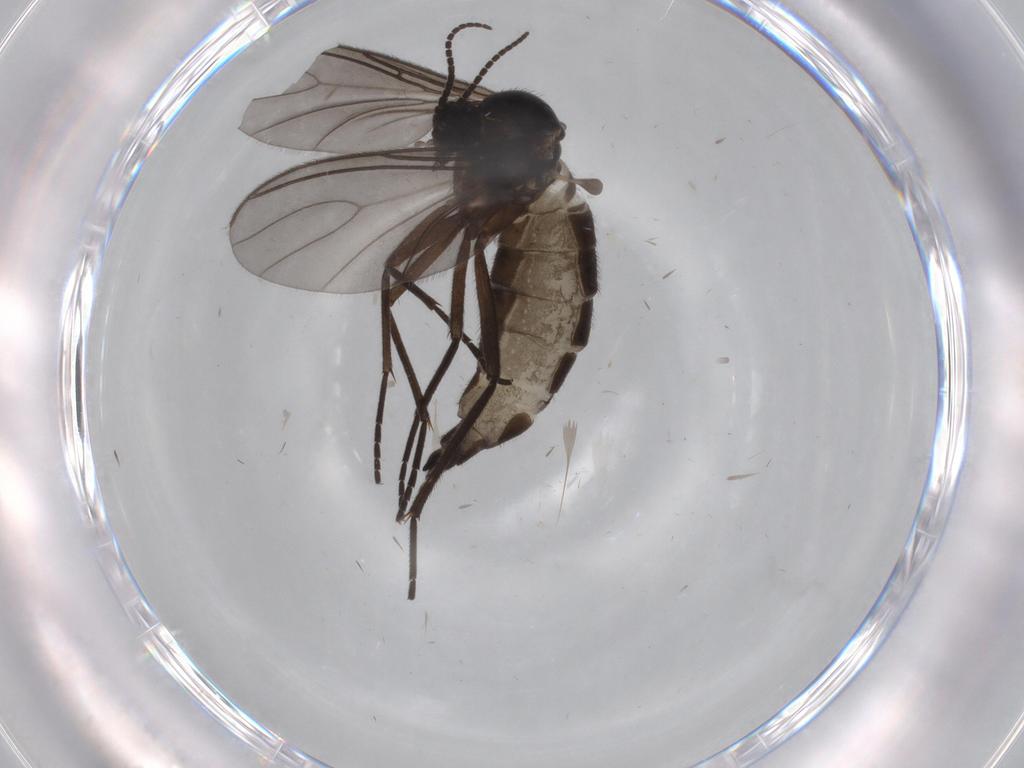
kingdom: Animalia
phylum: Arthropoda
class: Insecta
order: Diptera
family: Sciaridae
